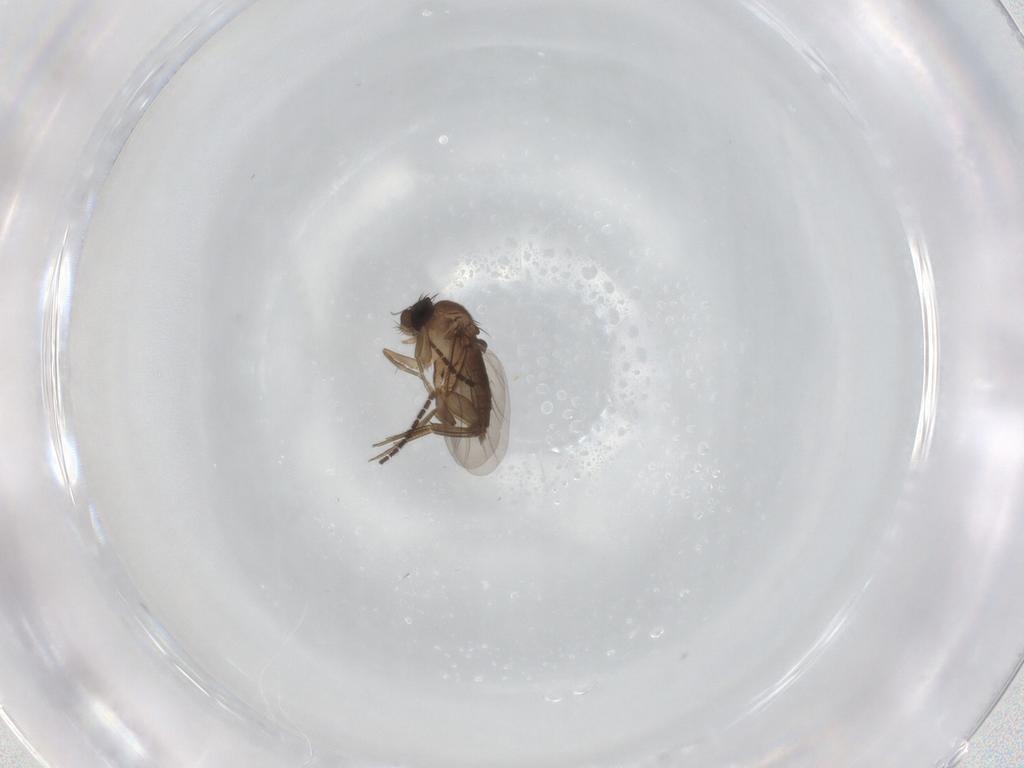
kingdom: Animalia
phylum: Arthropoda
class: Insecta
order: Diptera
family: Phoridae
